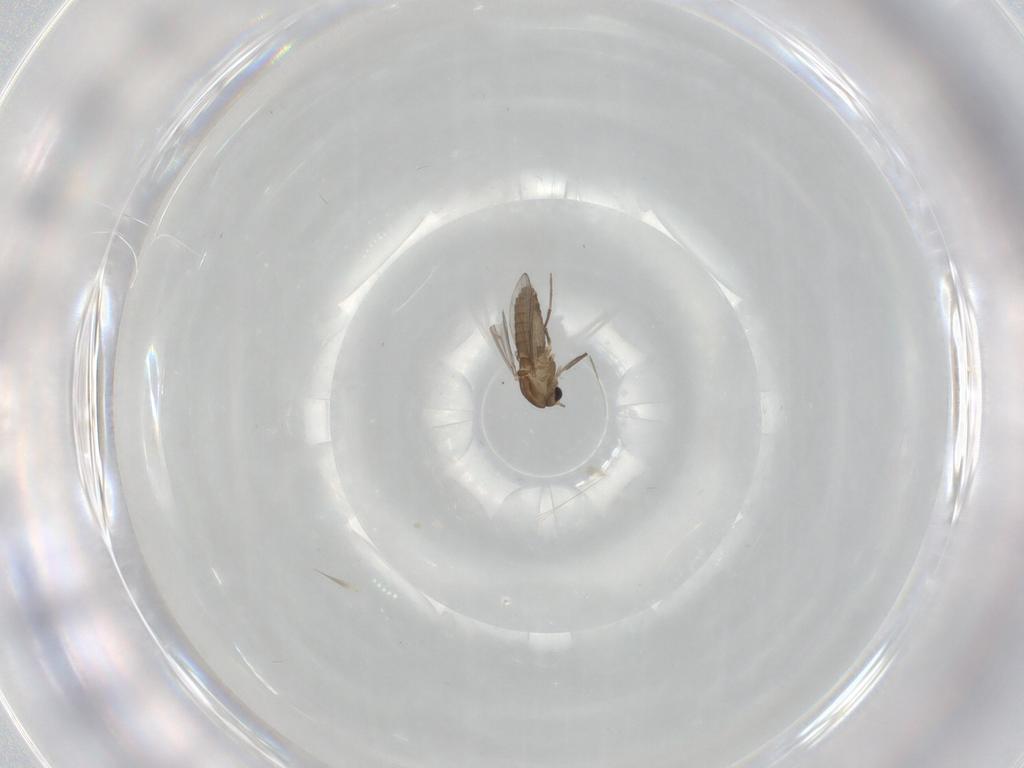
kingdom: Animalia
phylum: Arthropoda
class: Insecta
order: Diptera
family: Chironomidae
